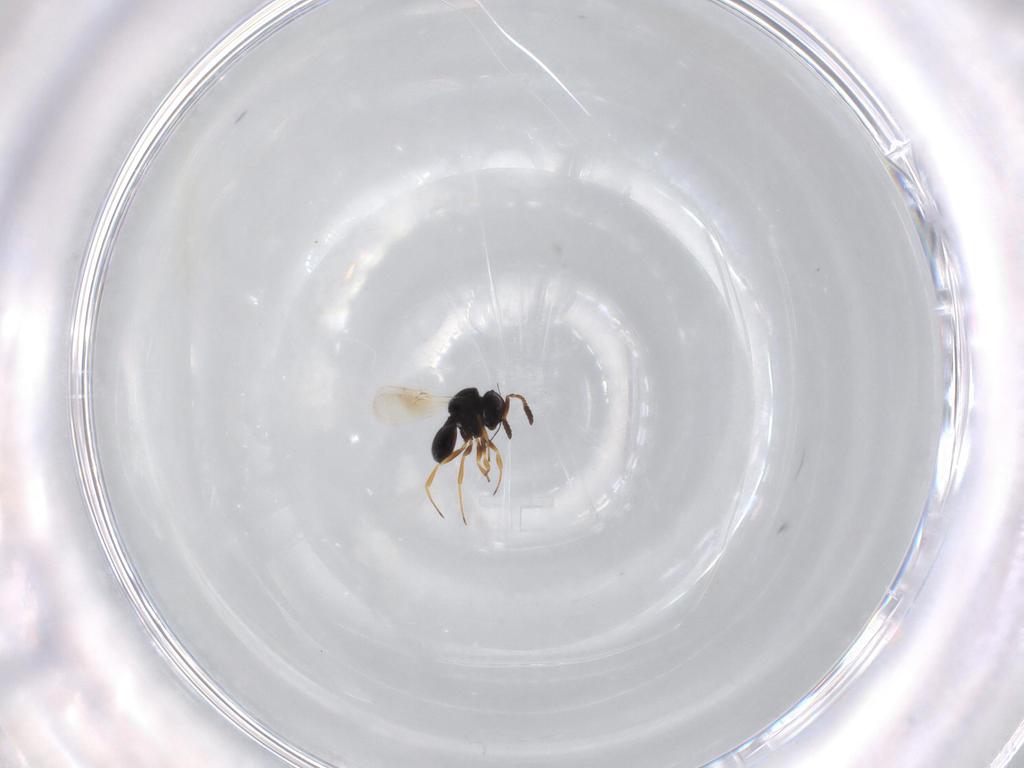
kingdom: Animalia
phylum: Arthropoda
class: Insecta
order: Hymenoptera
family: Scelionidae
